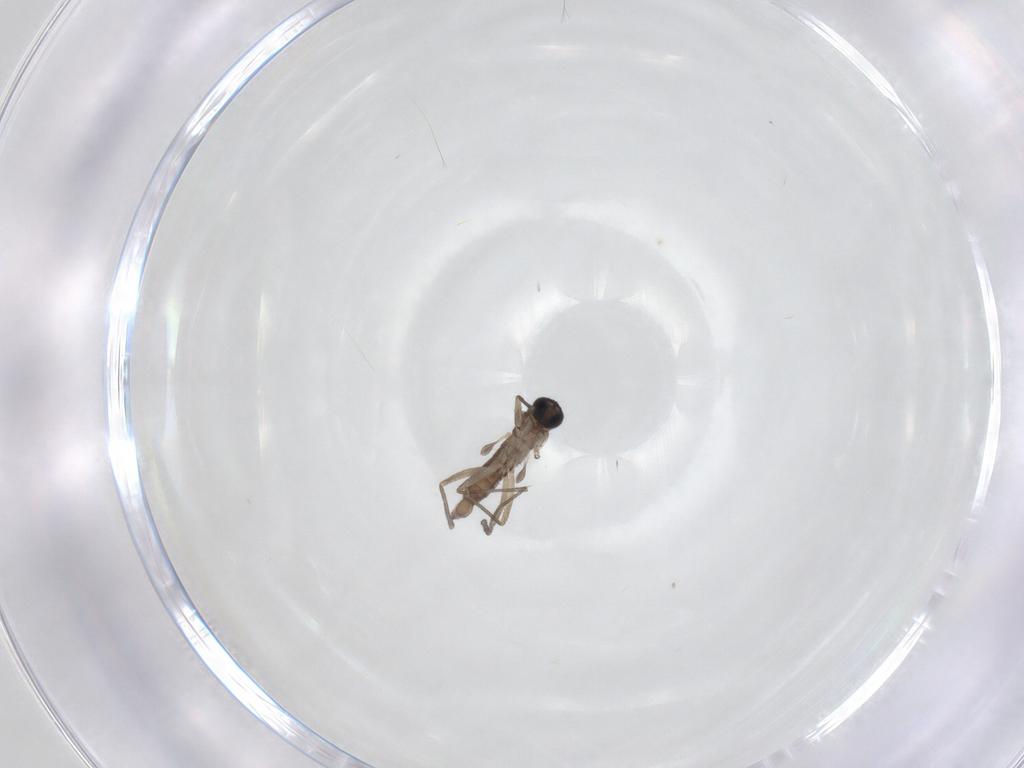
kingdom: Animalia
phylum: Arthropoda
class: Insecta
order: Diptera
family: Sciaridae
